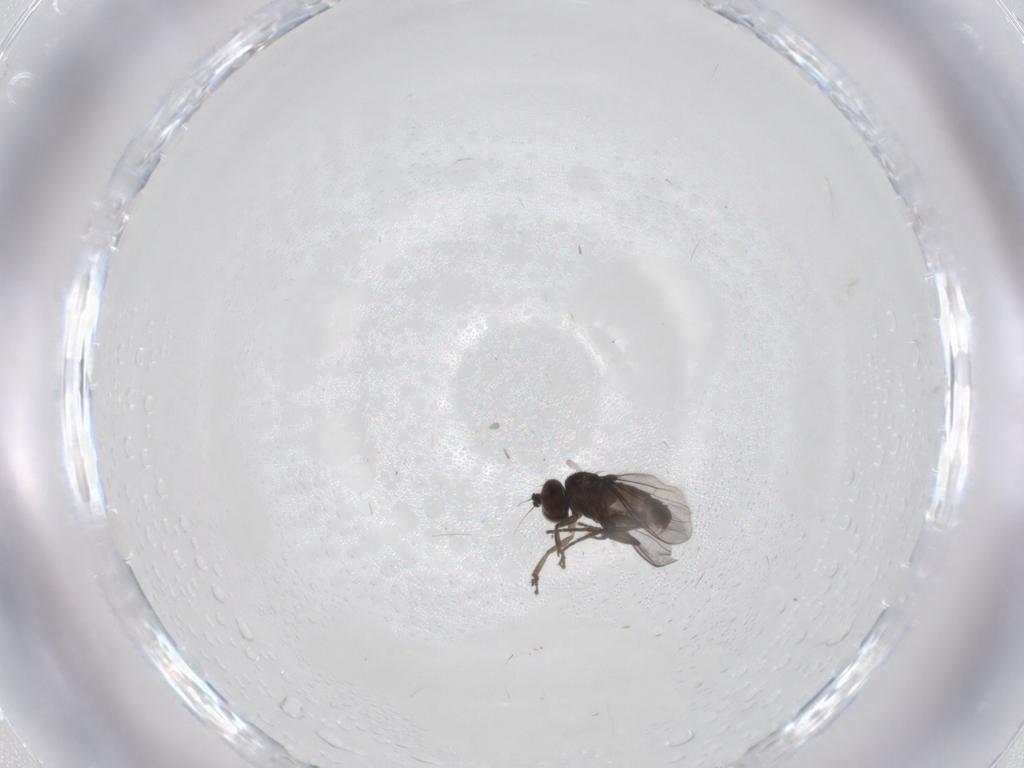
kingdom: Animalia
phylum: Arthropoda
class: Insecta
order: Diptera
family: Dolichopodidae
